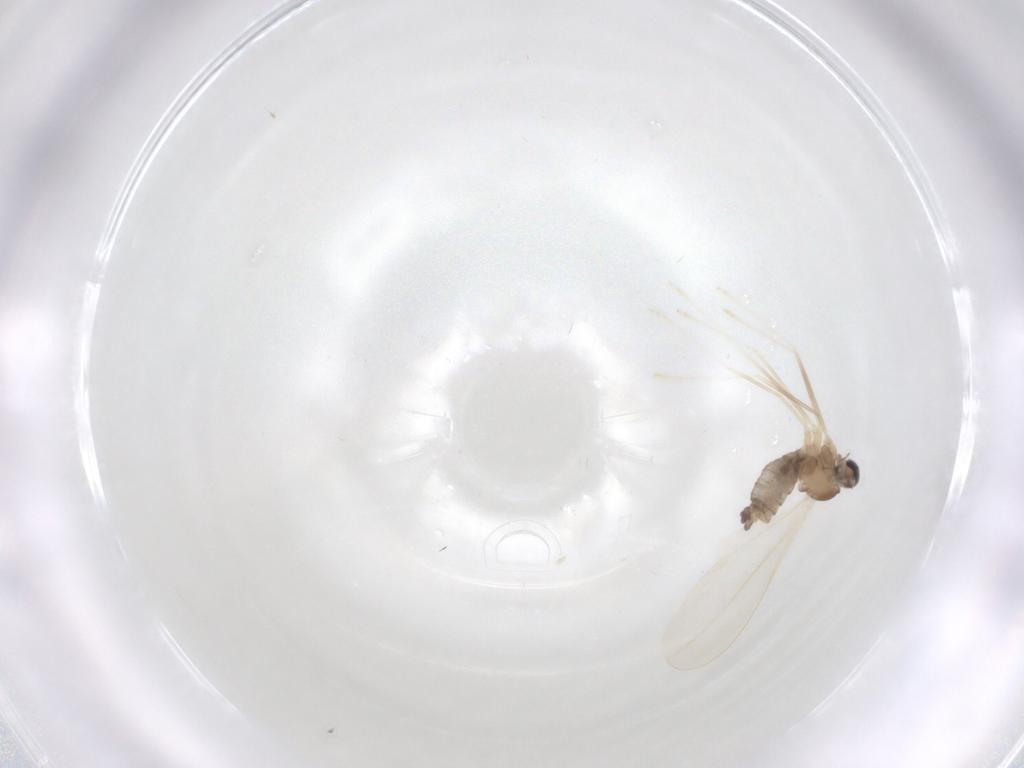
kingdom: Animalia
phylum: Arthropoda
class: Insecta
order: Diptera
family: Cecidomyiidae
